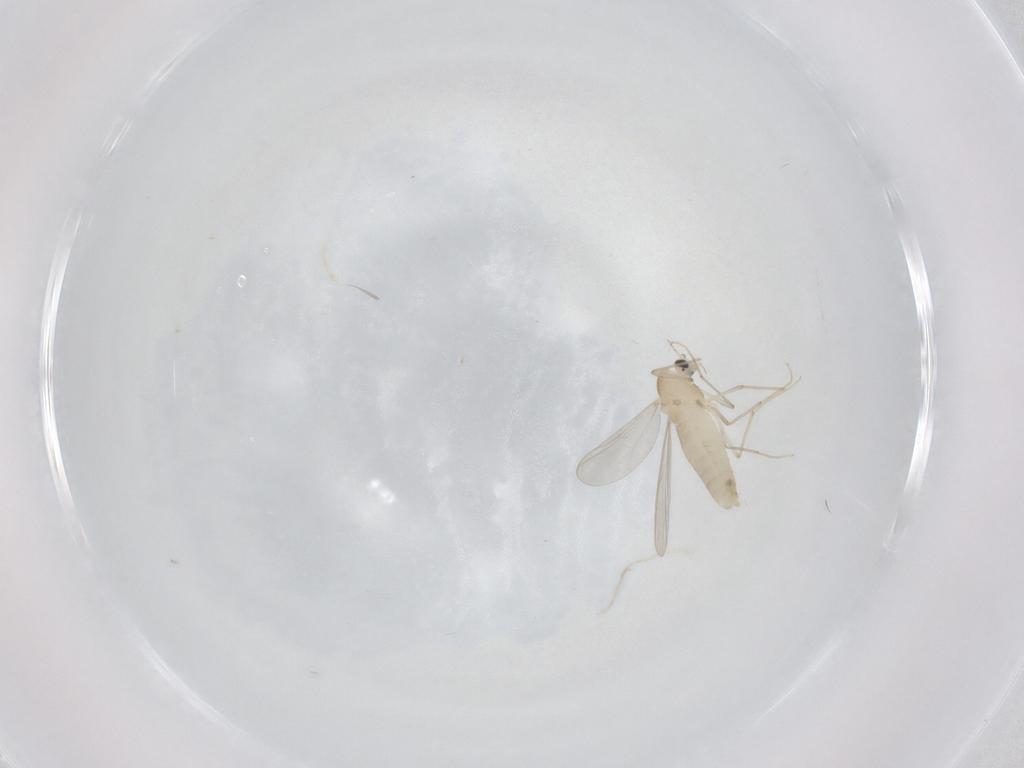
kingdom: Animalia
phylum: Arthropoda
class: Insecta
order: Diptera
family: Chironomidae
